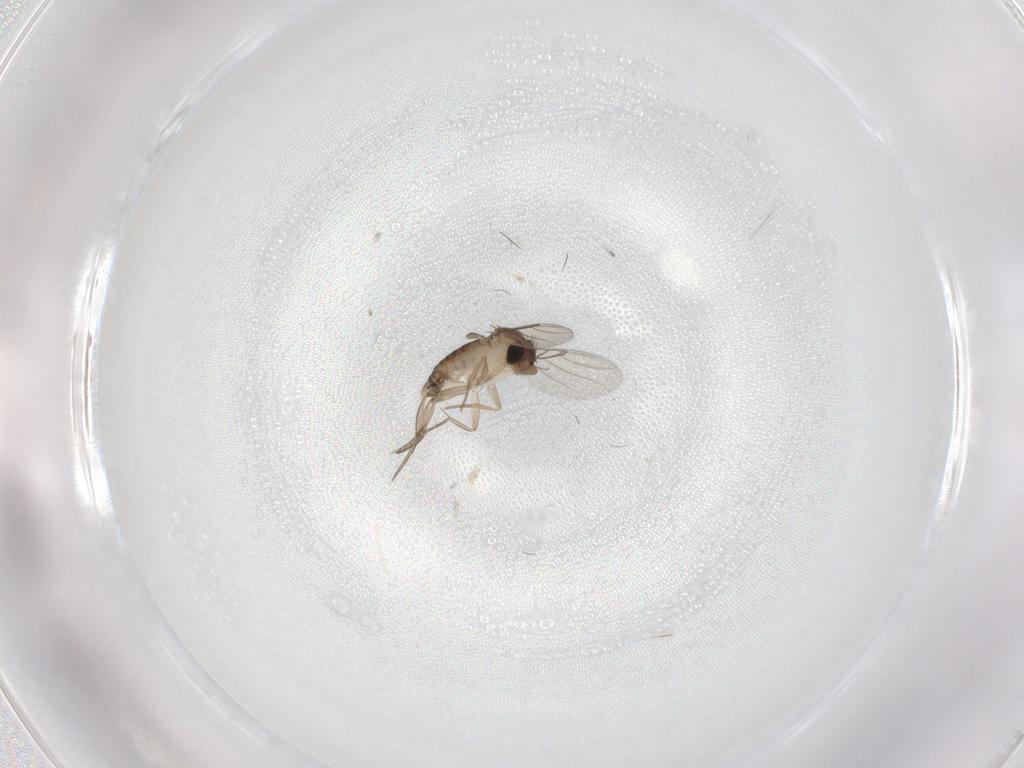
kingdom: Animalia
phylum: Arthropoda
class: Insecta
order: Diptera
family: Phoridae
